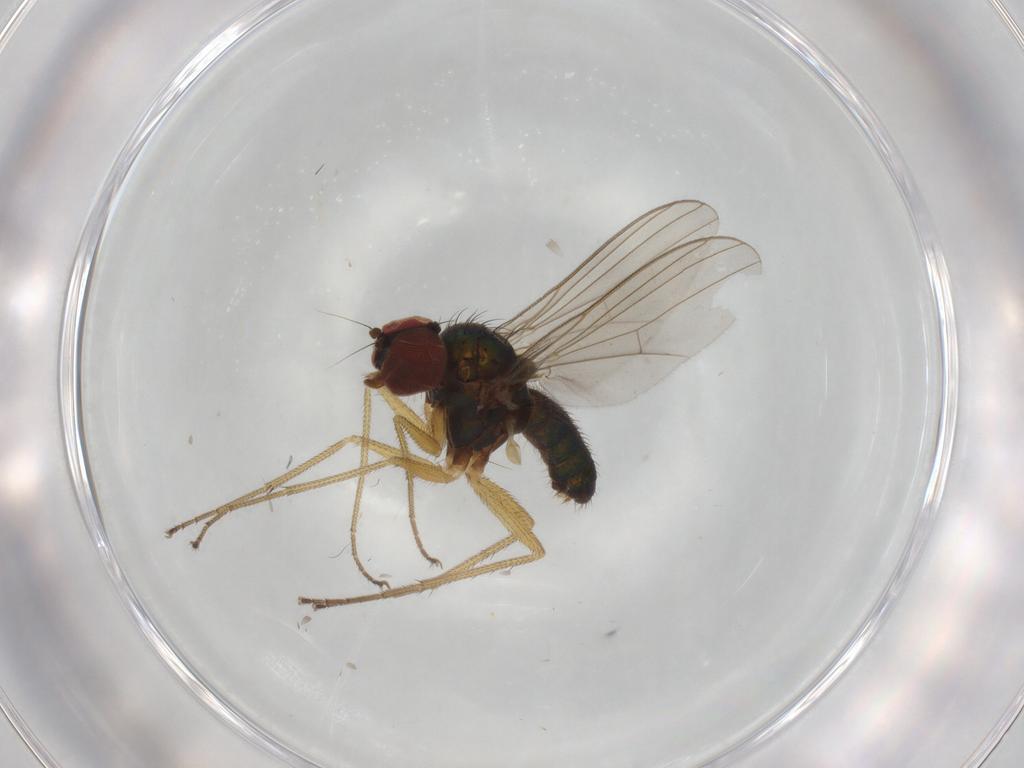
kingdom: Animalia
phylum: Arthropoda
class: Insecta
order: Diptera
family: Dolichopodidae
